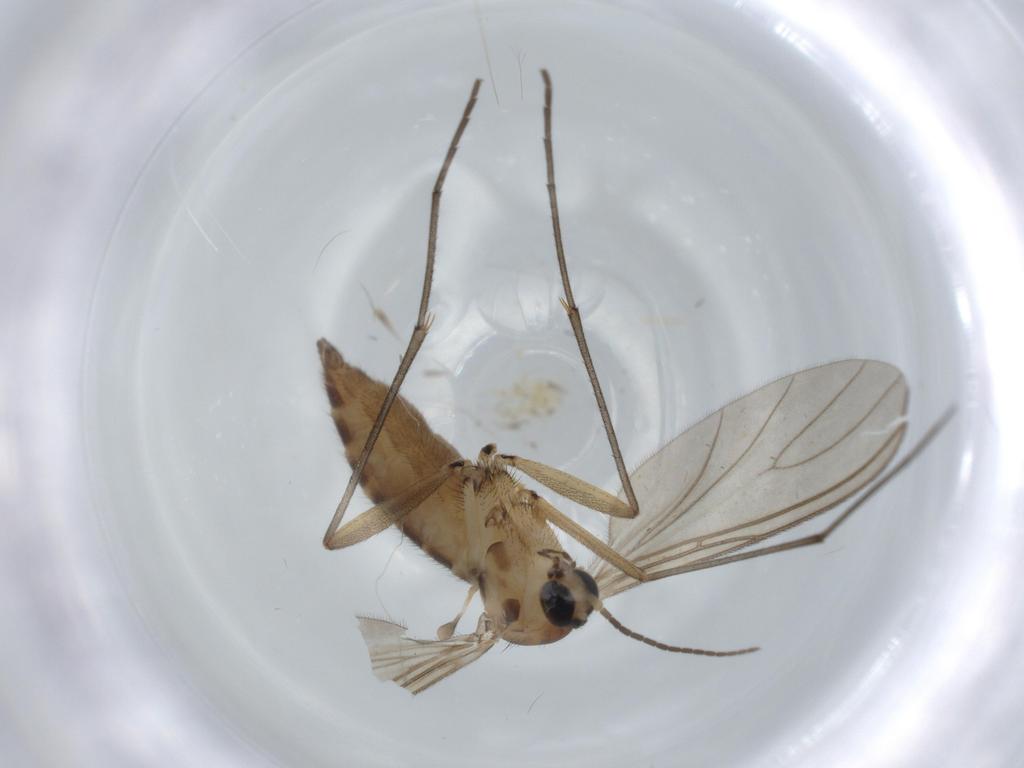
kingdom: Animalia
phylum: Arthropoda
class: Insecta
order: Diptera
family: Sciaridae
